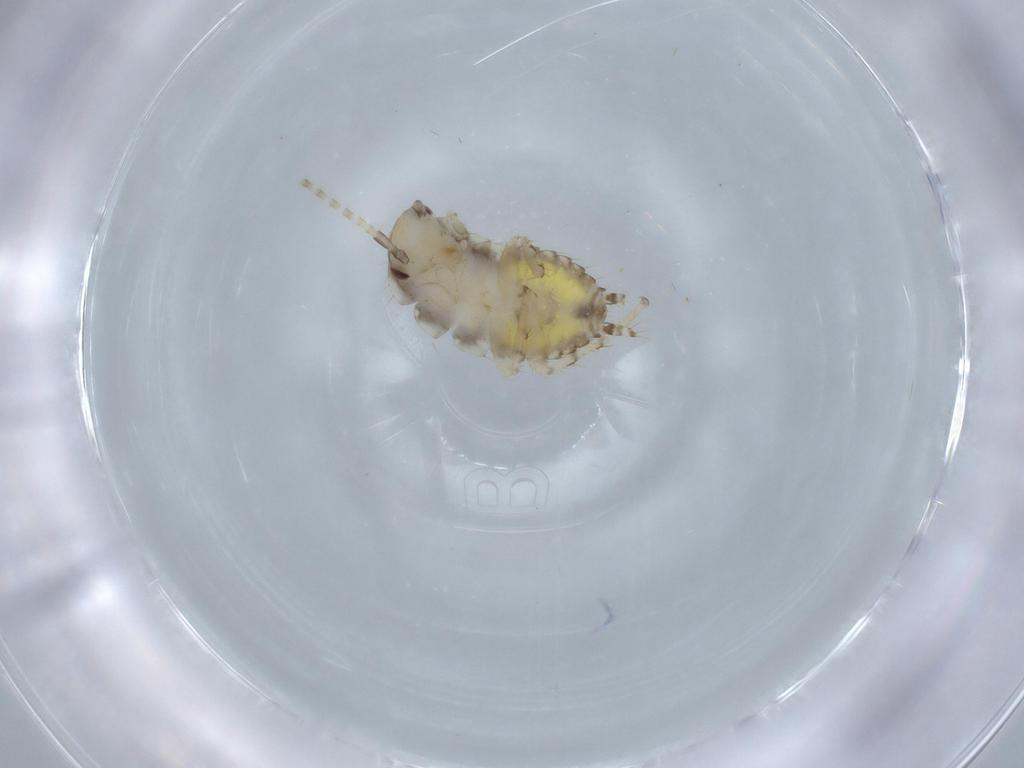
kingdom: Animalia
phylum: Arthropoda
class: Insecta
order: Blattodea
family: Ectobiidae
